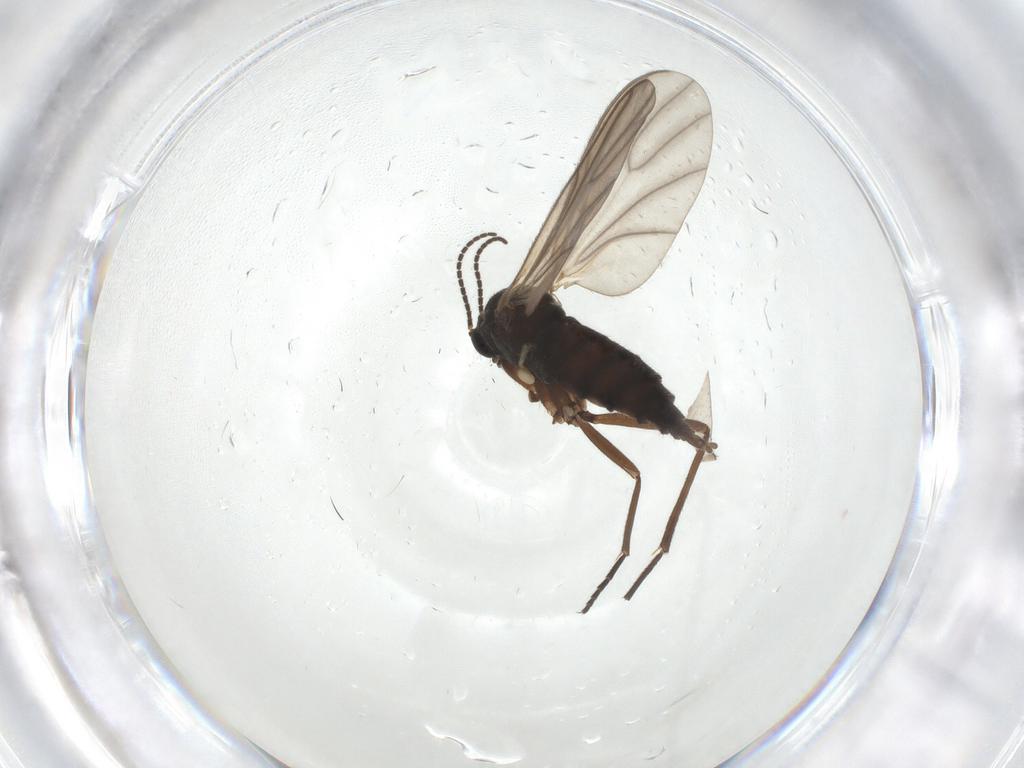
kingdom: Animalia
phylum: Arthropoda
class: Insecta
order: Diptera
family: Sciaridae
